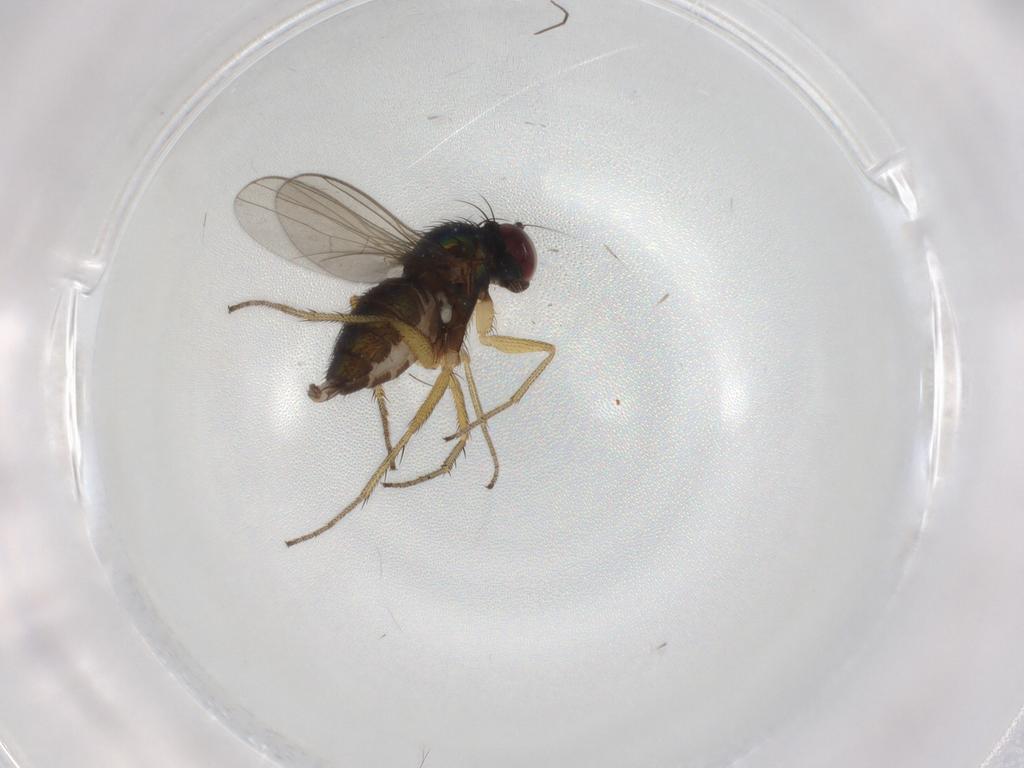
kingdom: Animalia
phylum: Arthropoda
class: Insecta
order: Diptera
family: Dolichopodidae
